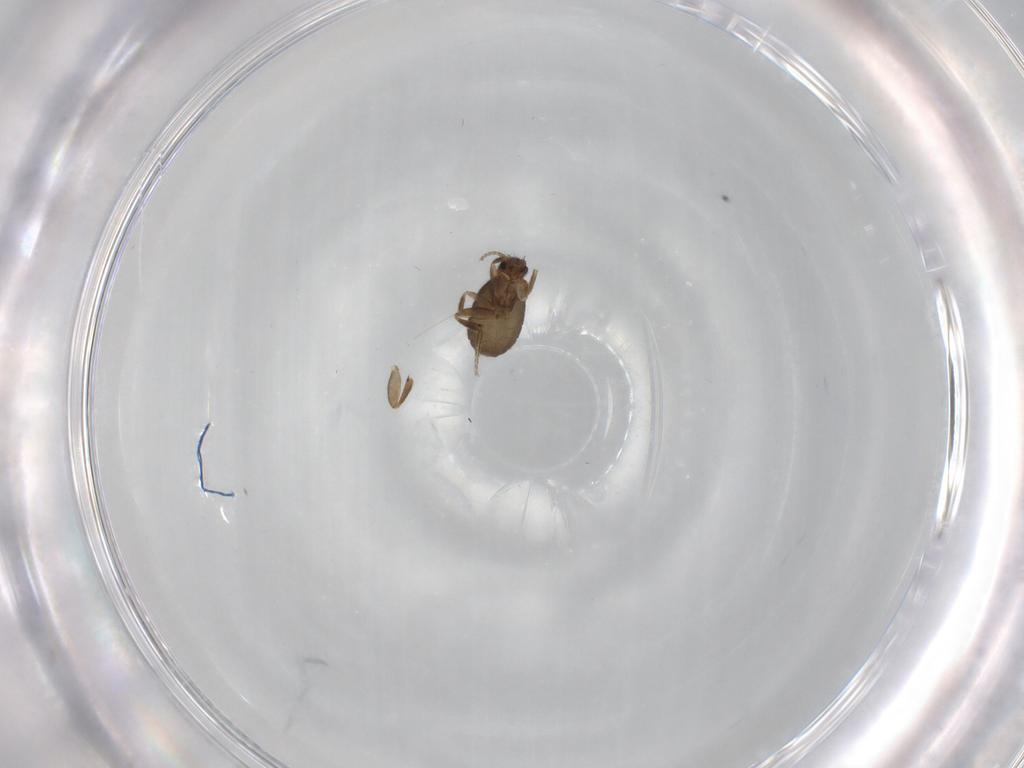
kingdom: Animalia
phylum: Arthropoda
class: Insecta
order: Diptera
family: Phoridae
